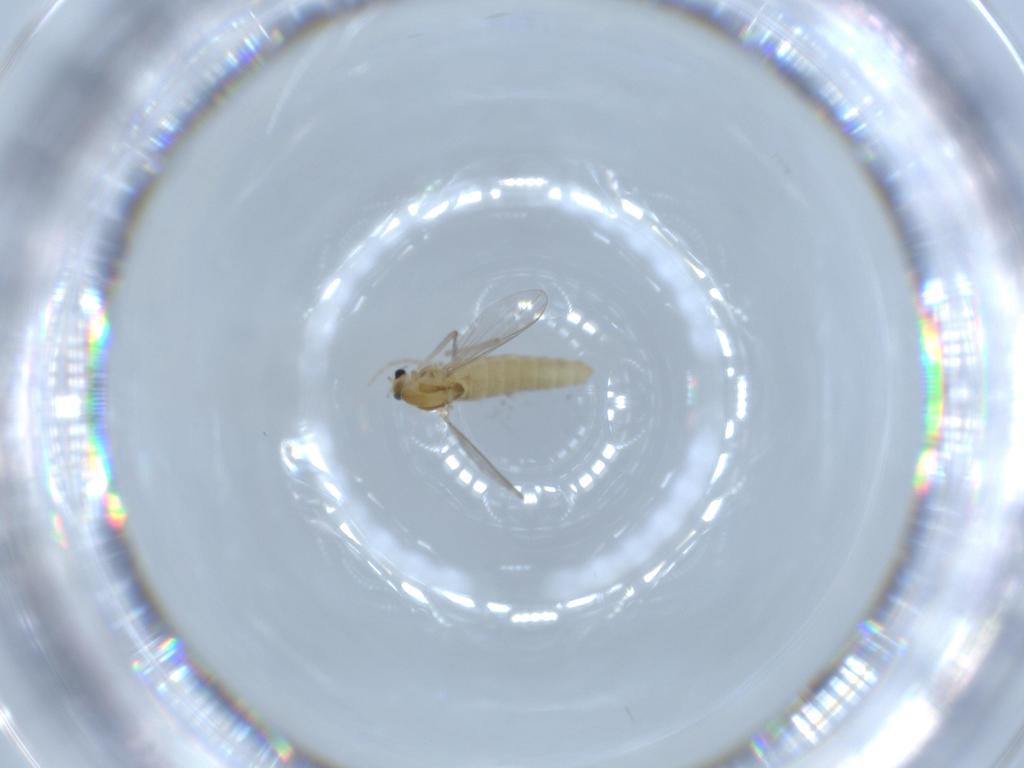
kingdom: Animalia
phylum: Arthropoda
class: Insecta
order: Diptera
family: Chironomidae
